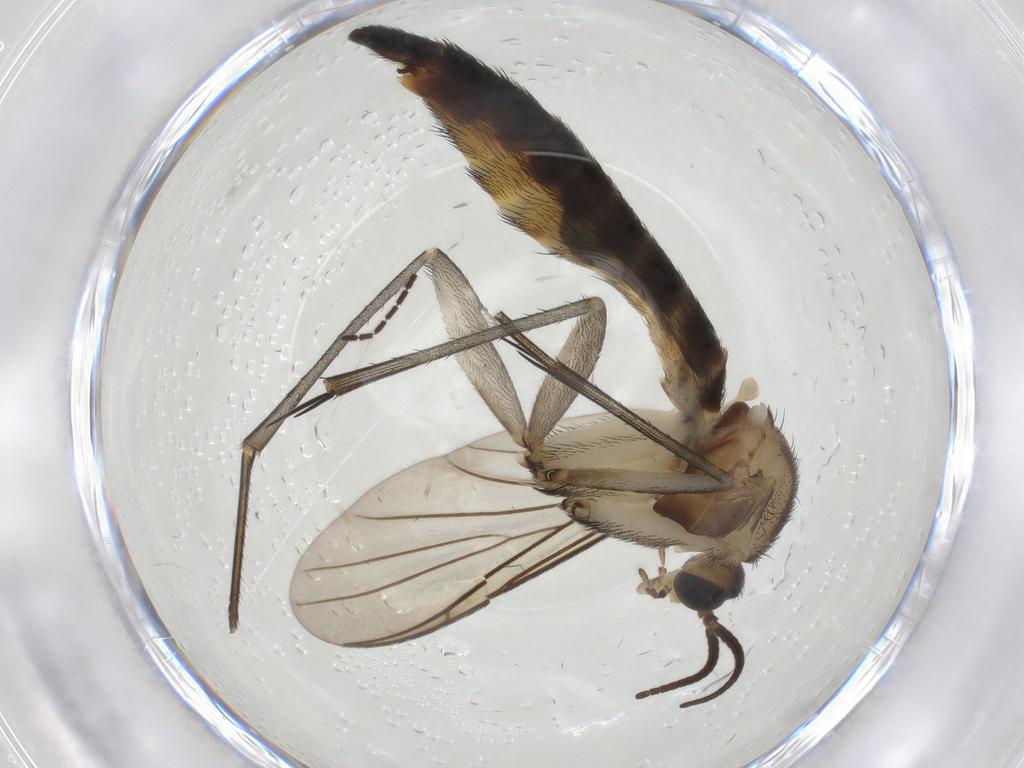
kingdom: Animalia
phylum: Arthropoda
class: Insecta
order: Diptera
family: Keroplatidae
